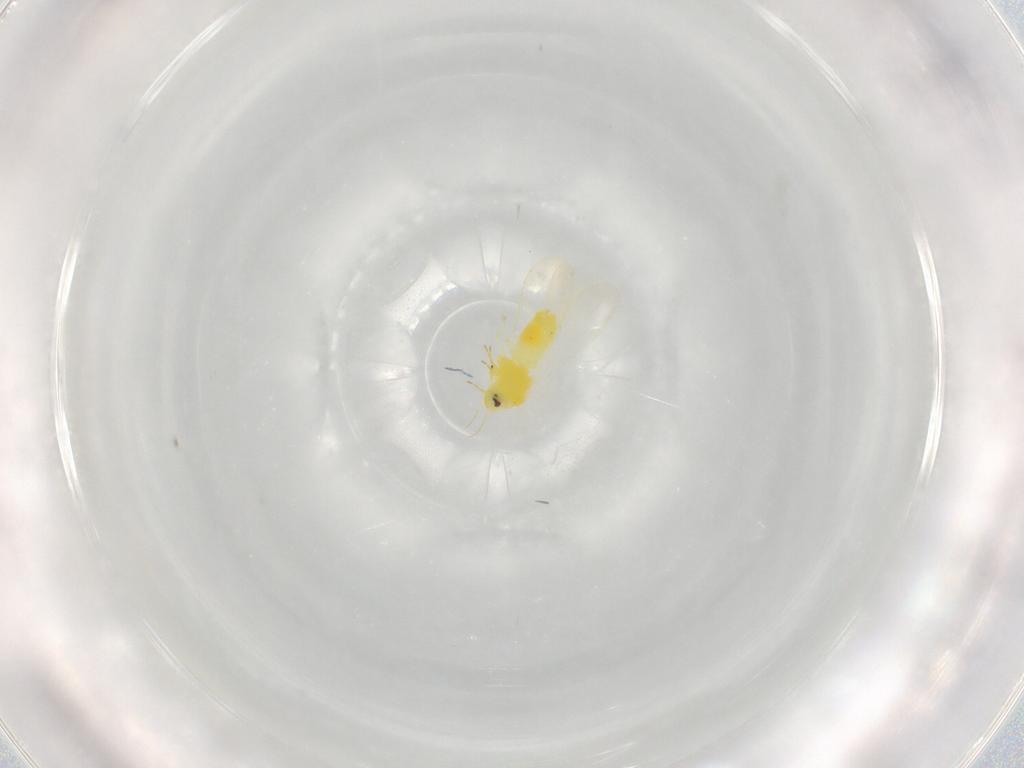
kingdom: Animalia
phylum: Arthropoda
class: Insecta
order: Hemiptera
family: Aleyrodidae
